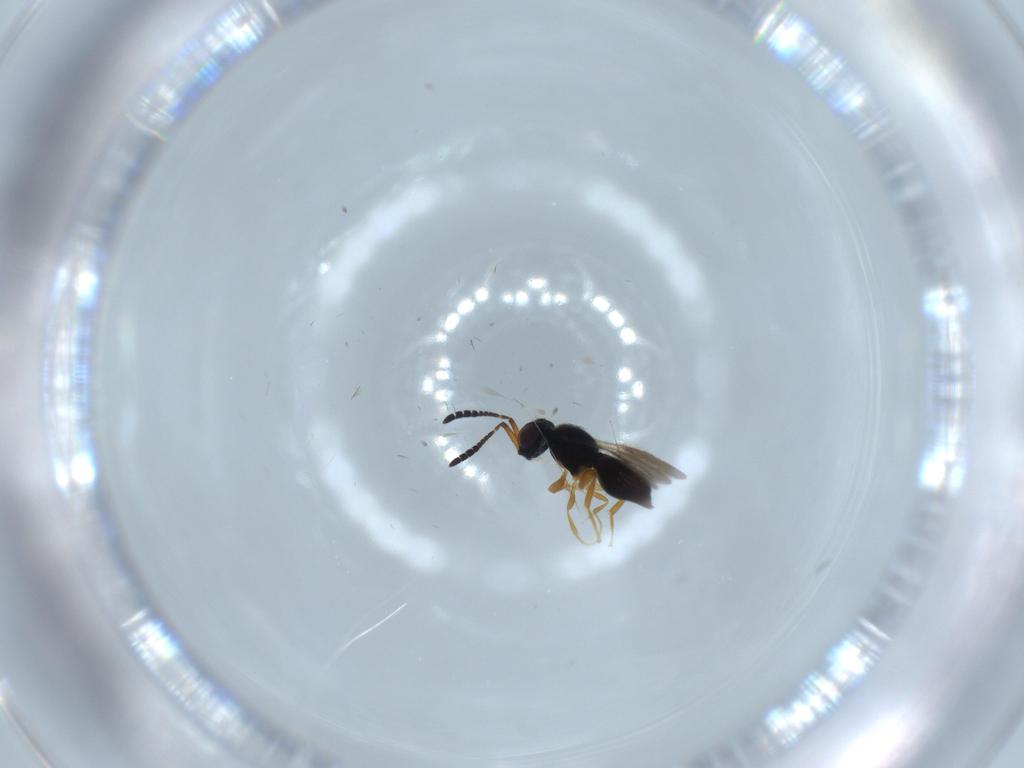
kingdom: Animalia
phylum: Arthropoda
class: Insecta
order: Hymenoptera
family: Ceraphronidae
